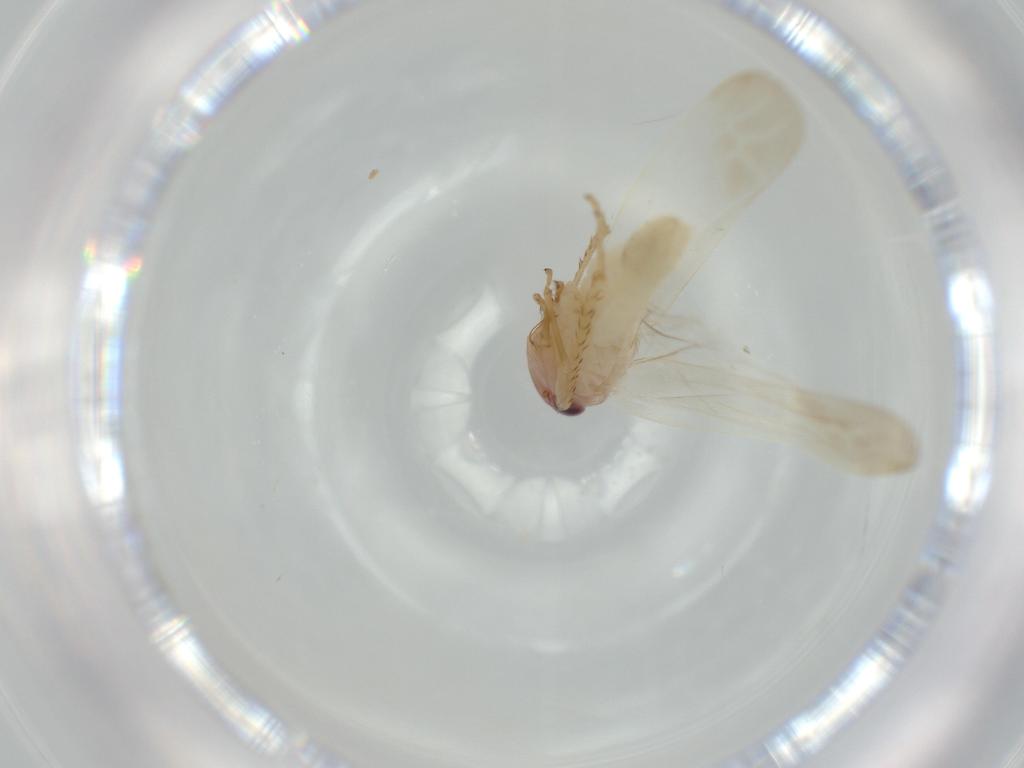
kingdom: Animalia
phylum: Arthropoda
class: Insecta
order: Hemiptera
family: Cicadellidae
